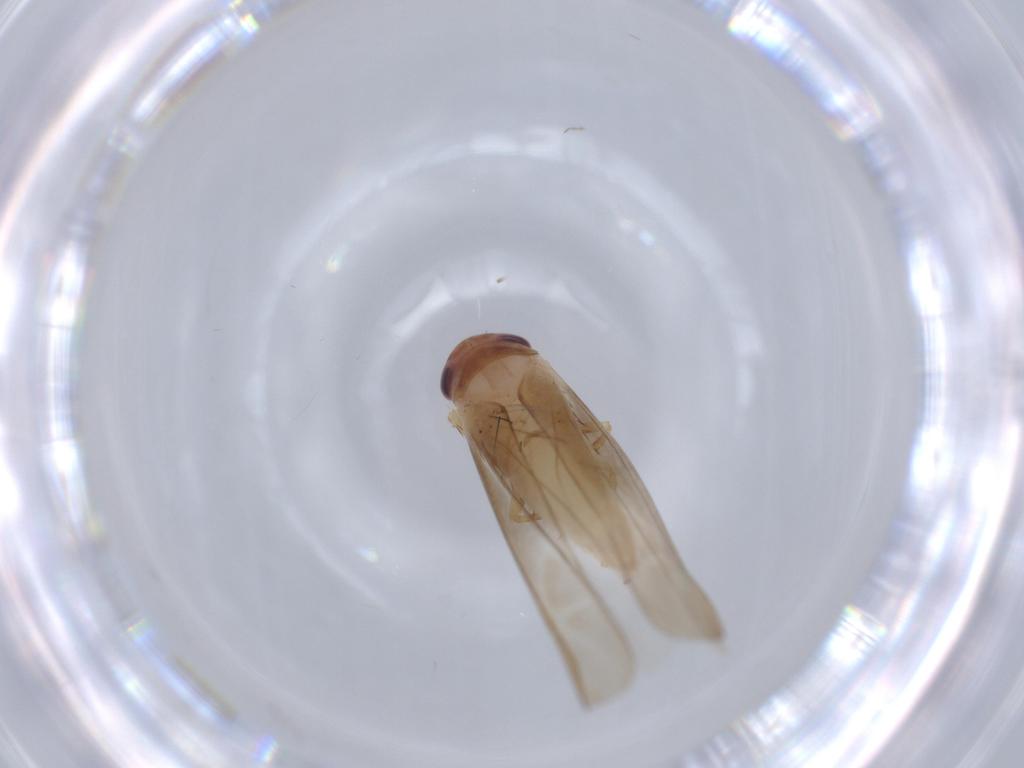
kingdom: Animalia
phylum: Arthropoda
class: Insecta
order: Hemiptera
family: Cicadellidae
